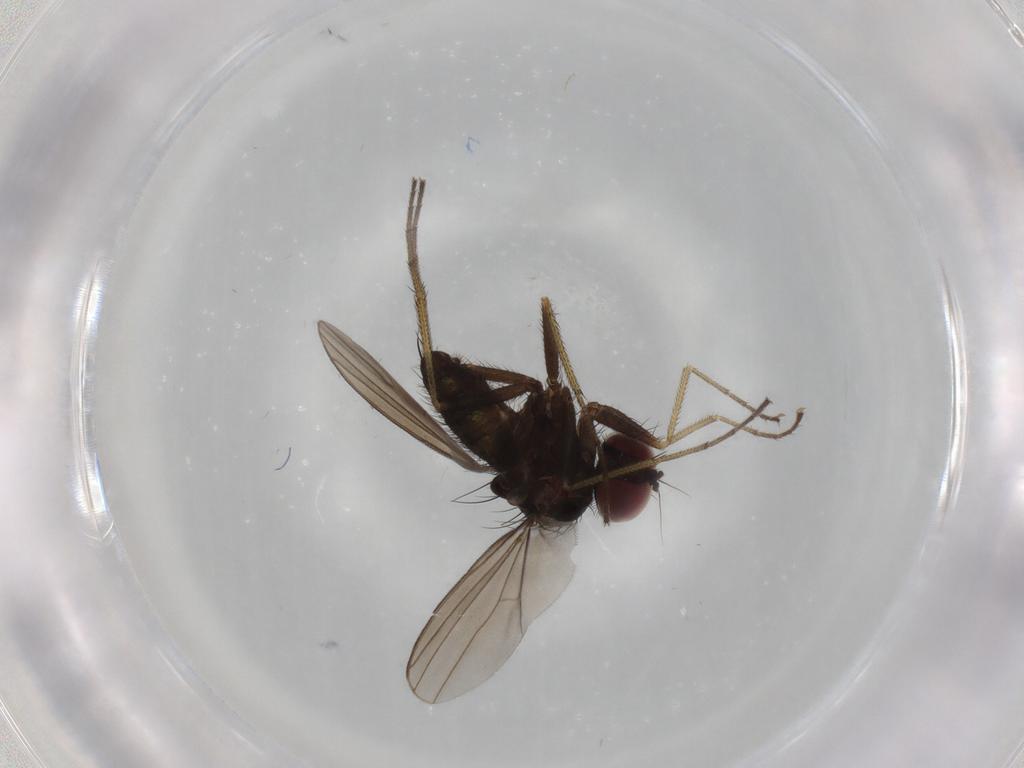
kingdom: Animalia
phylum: Arthropoda
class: Insecta
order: Diptera
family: Dolichopodidae
